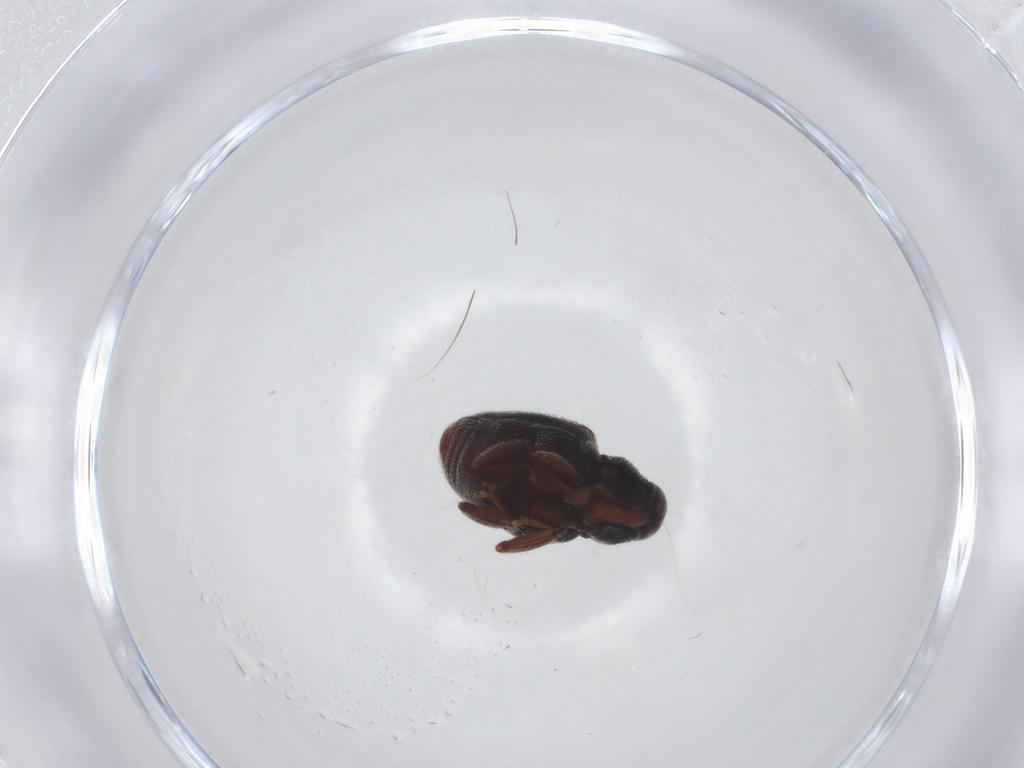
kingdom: Animalia
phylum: Arthropoda
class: Insecta
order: Coleoptera
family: Curculionidae
